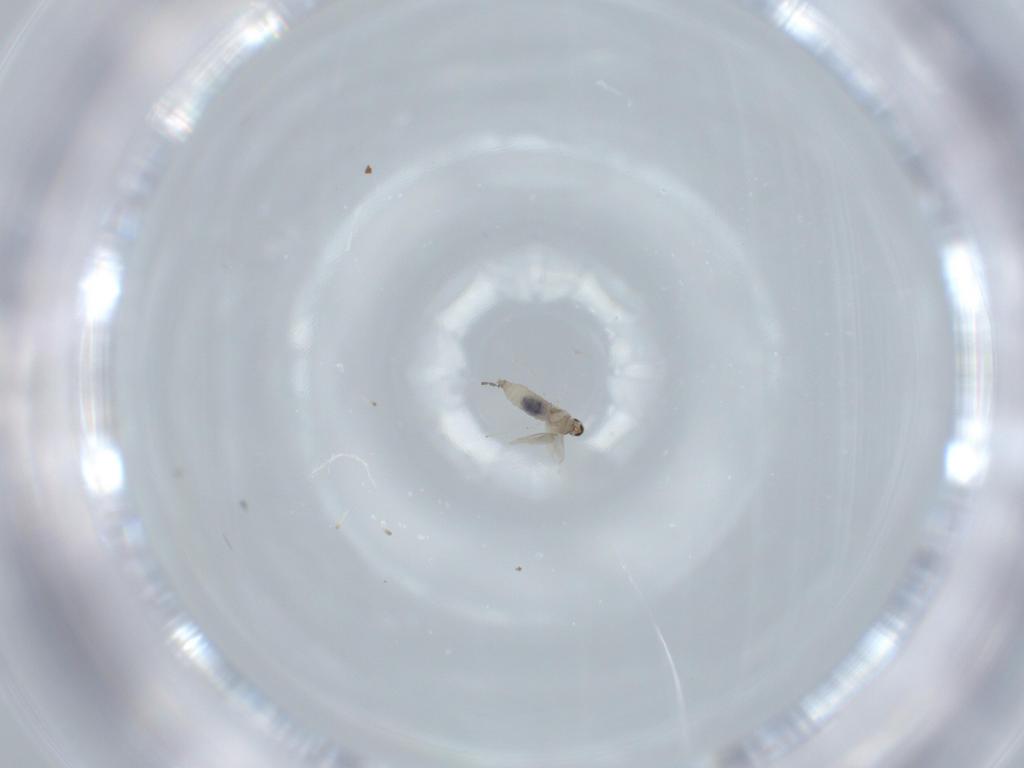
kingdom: Animalia
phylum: Arthropoda
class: Insecta
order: Diptera
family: Cecidomyiidae
